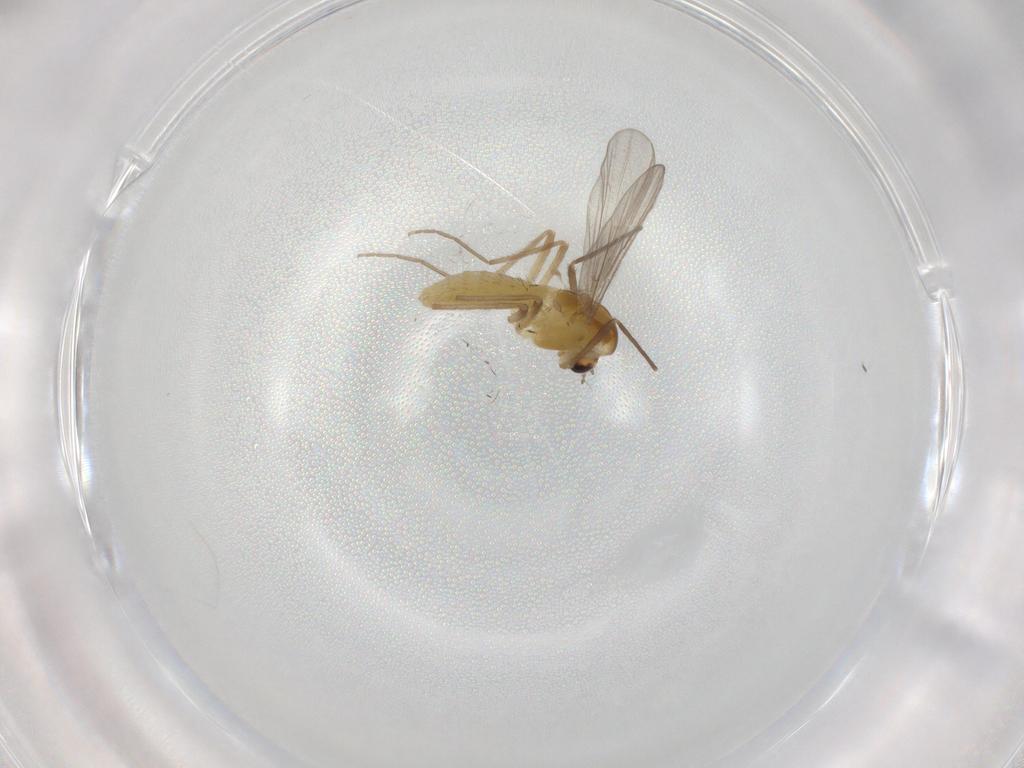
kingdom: Animalia
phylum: Arthropoda
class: Insecta
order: Diptera
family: Chironomidae
